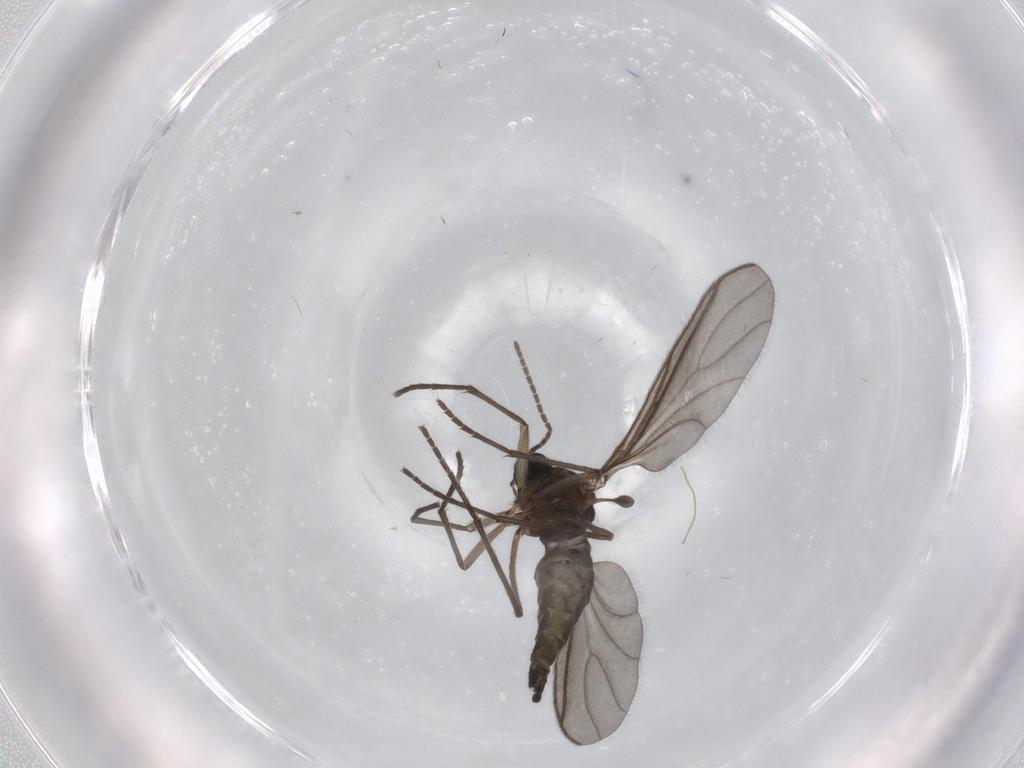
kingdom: Animalia
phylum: Arthropoda
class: Insecta
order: Diptera
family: Sciaridae
